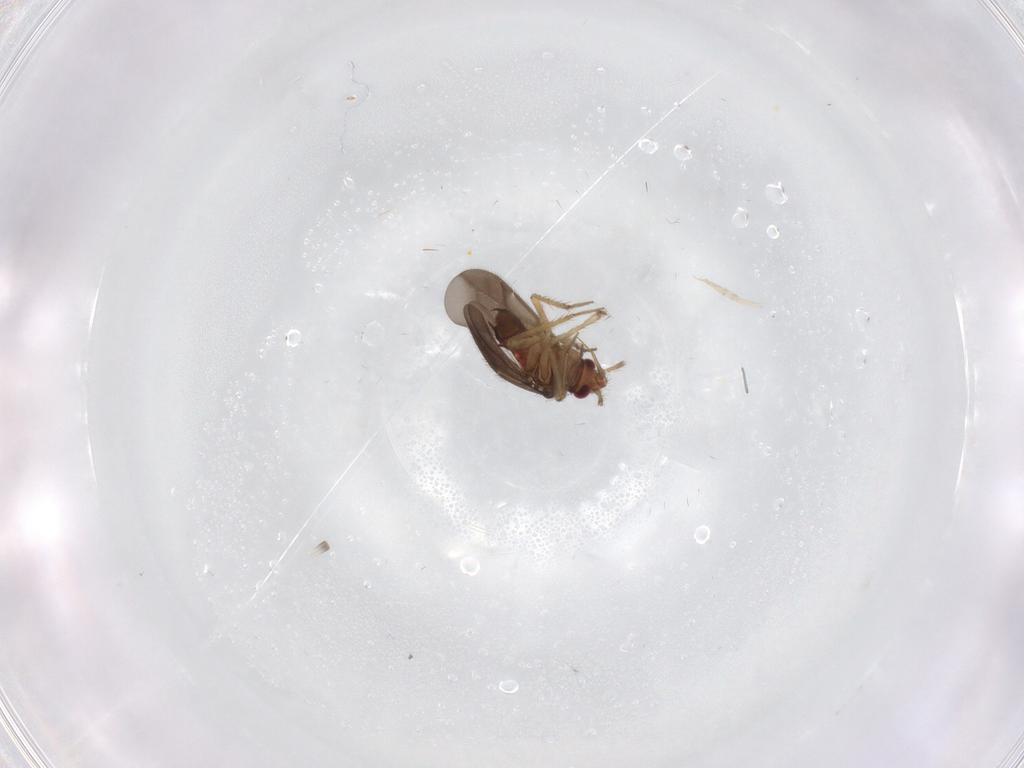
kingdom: Animalia
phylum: Arthropoda
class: Insecta
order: Hemiptera
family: Ceratocombidae
